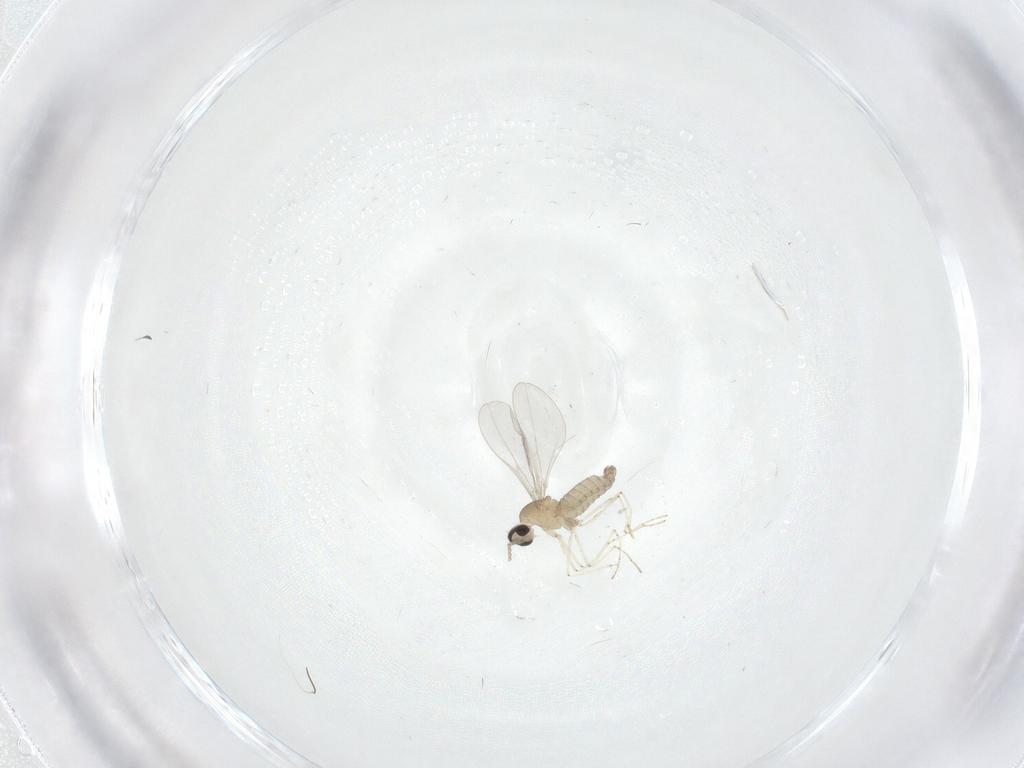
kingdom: Animalia
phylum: Arthropoda
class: Insecta
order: Diptera
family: Cecidomyiidae
